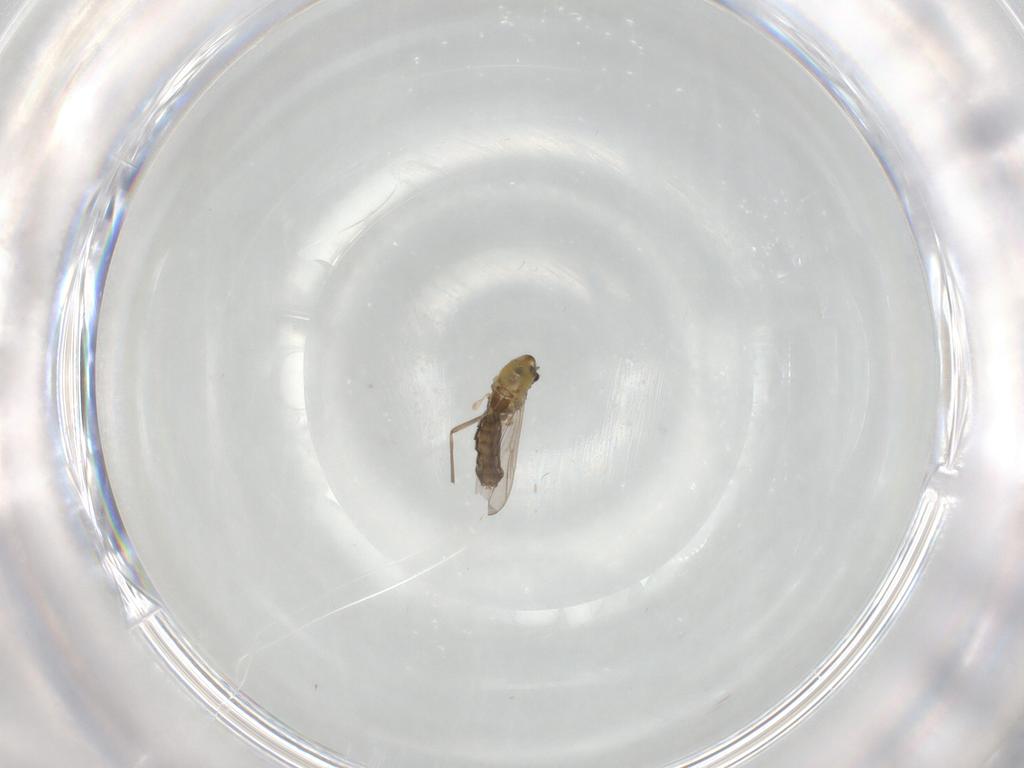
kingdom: Animalia
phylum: Arthropoda
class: Insecta
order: Diptera
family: Chironomidae
